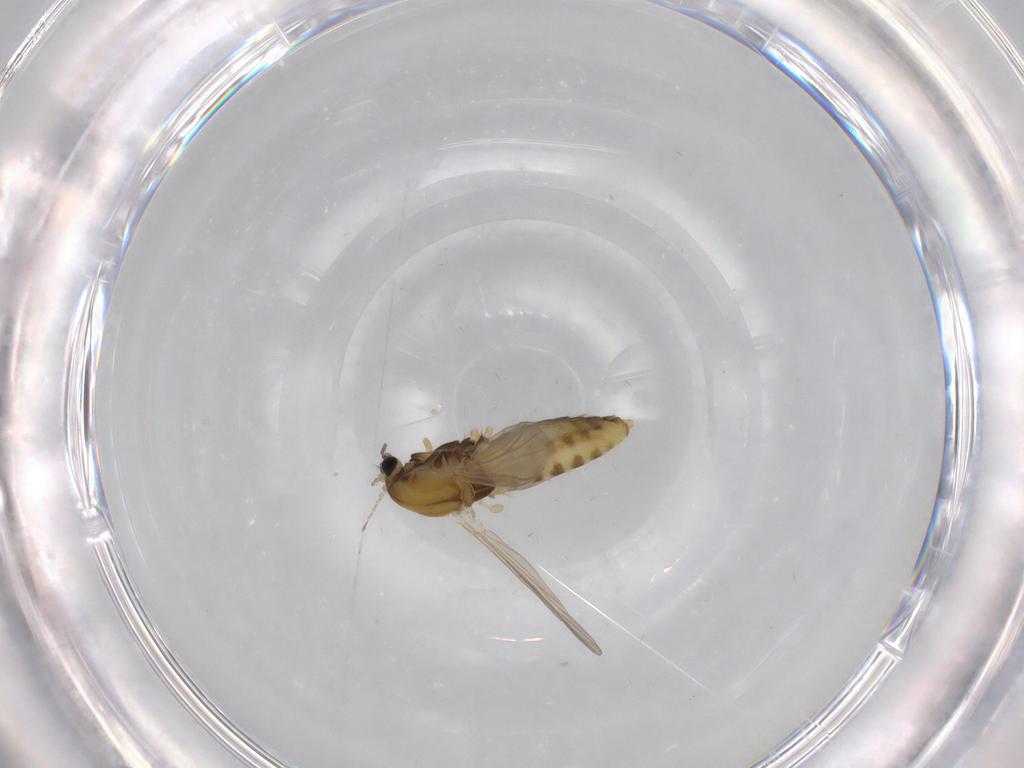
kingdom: Animalia
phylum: Arthropoda
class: Insecta
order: Diptera
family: Chironomidae
